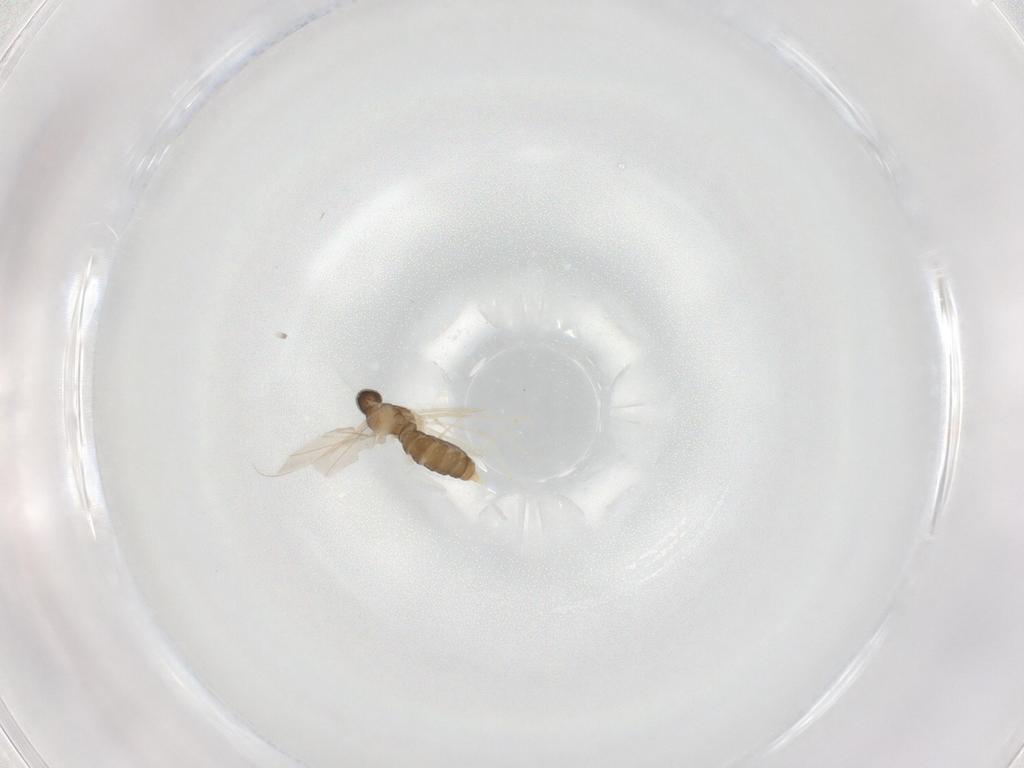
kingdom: Animalia
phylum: Arthropoda
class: Insecta
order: Diptera
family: Cecidomyiidae
